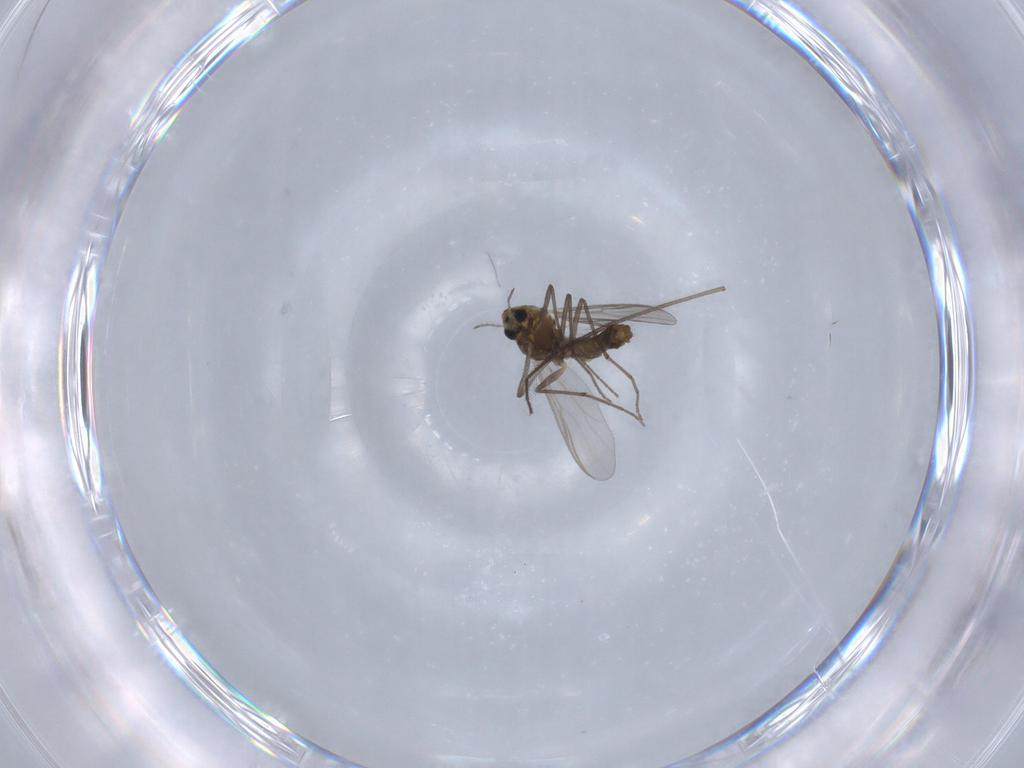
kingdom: Animalia
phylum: Arthropoda
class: Insecta
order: Diptera
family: Chironomidae
